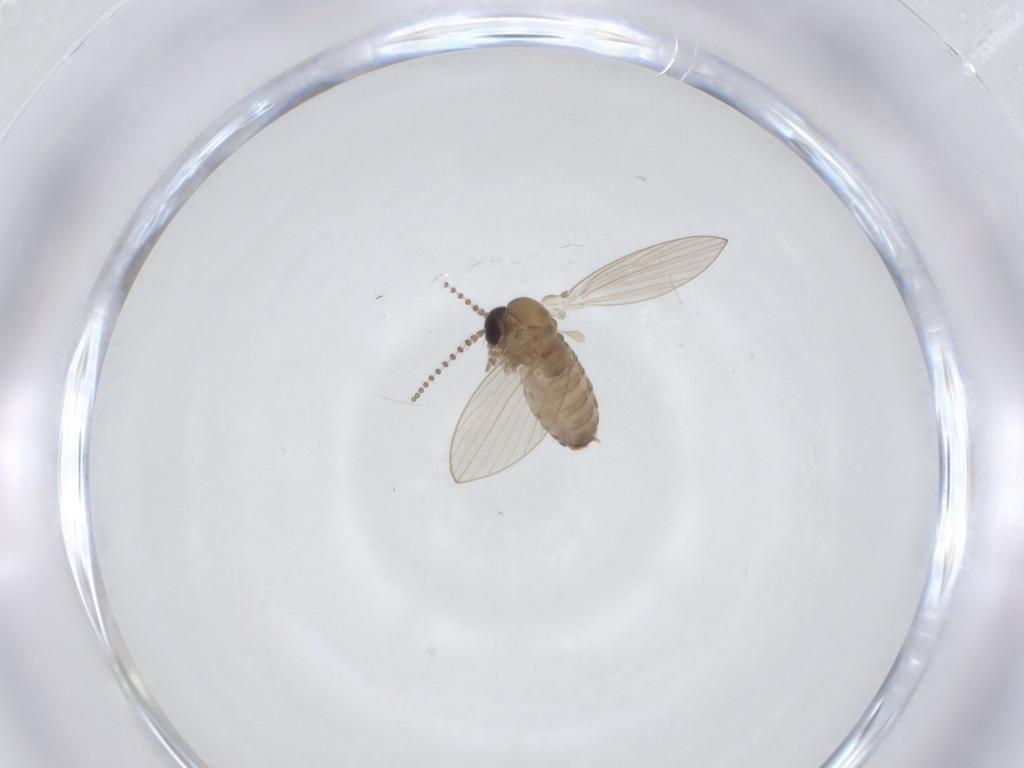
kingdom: Animalia
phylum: Arthropoda
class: Insecta
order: Diptera
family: Psychodidae
